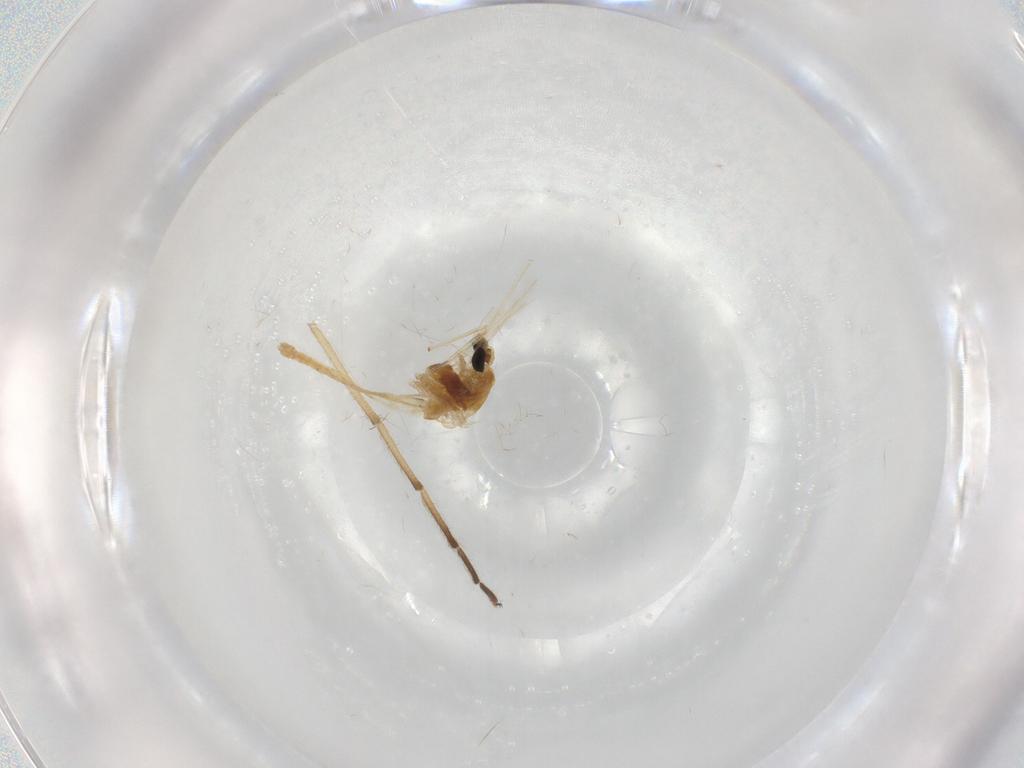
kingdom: Animalia
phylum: Arthropoda
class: Insecta
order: Diptera
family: Chironomidae
